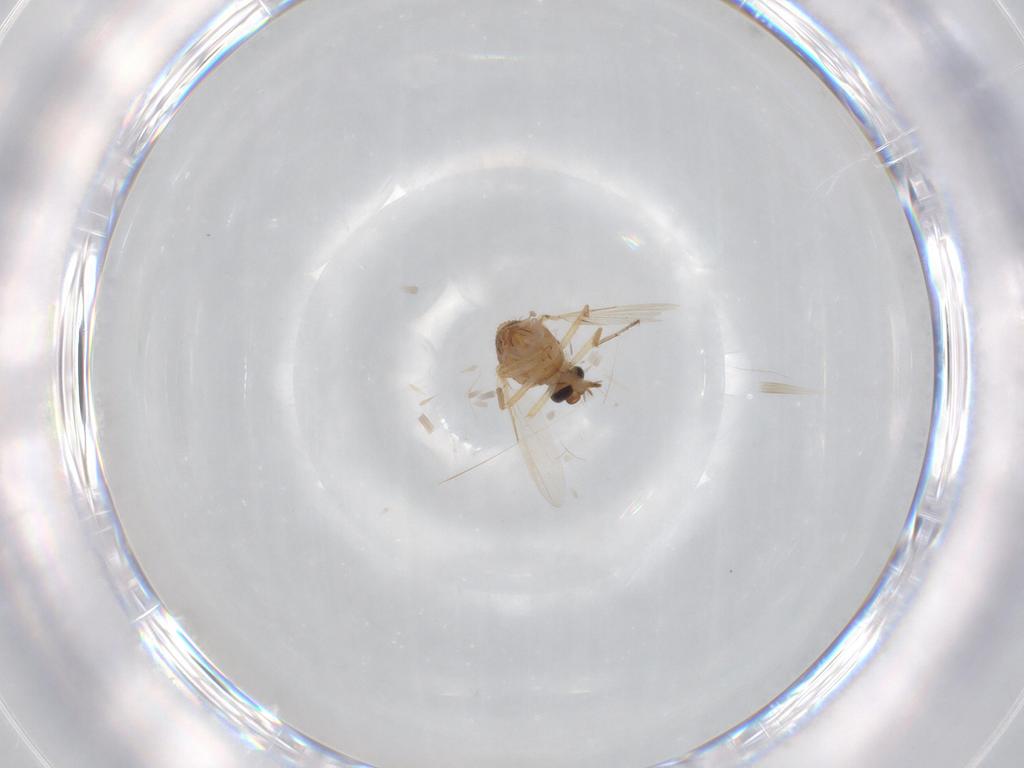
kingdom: Animalia
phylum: Arthropoda
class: Insecta
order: Diptera
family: Ceratopogonidae
